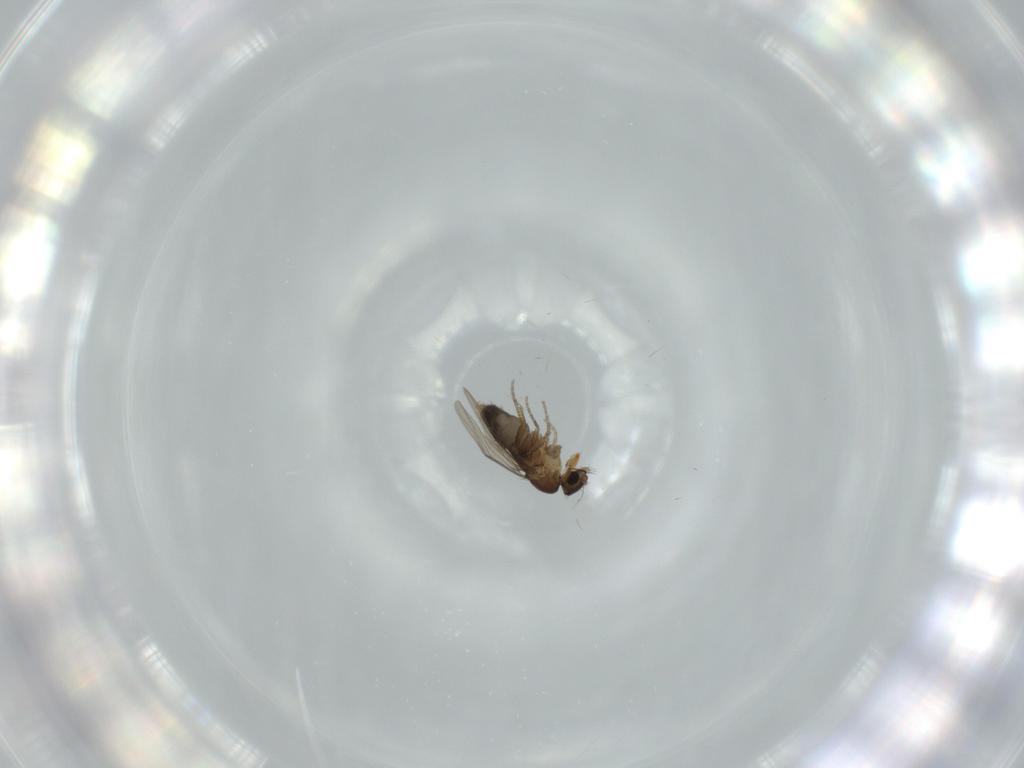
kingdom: Animalia
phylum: Arthropoda
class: Insecta
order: Diptera
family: Phoridae
